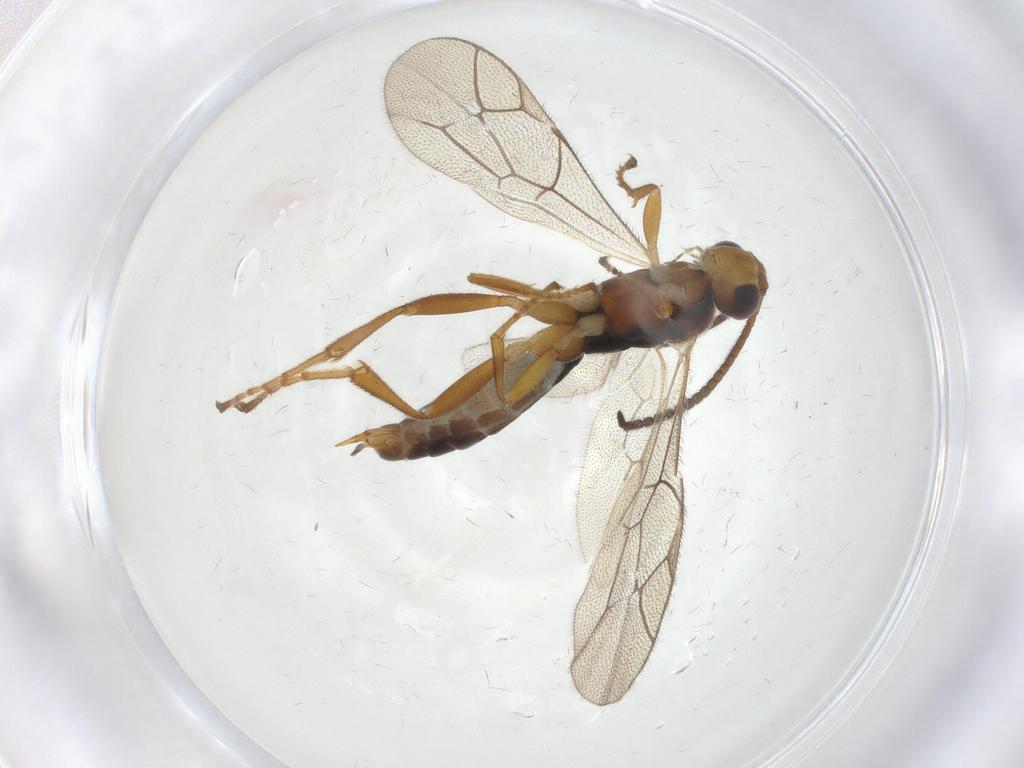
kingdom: Animalia
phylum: Arthropoda
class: Insecta
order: Hymenoptera
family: Ichneumonidae
